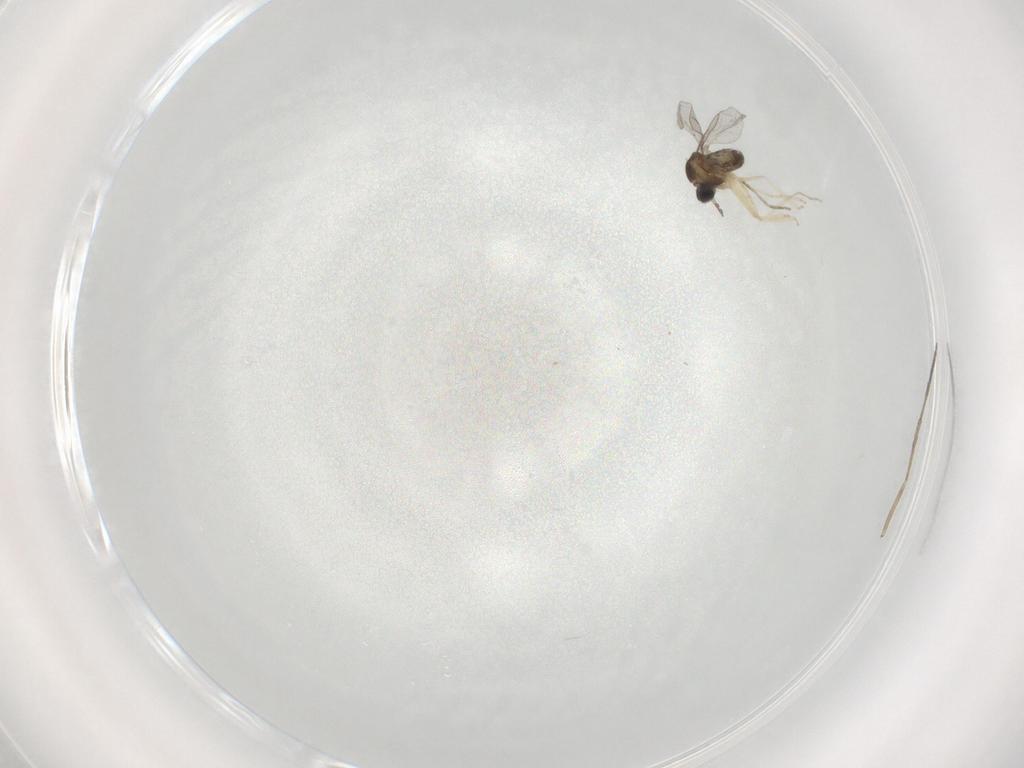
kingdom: Animalia
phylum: Arthropoda
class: Insecta
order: Diptera
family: Cecidomyiidae
